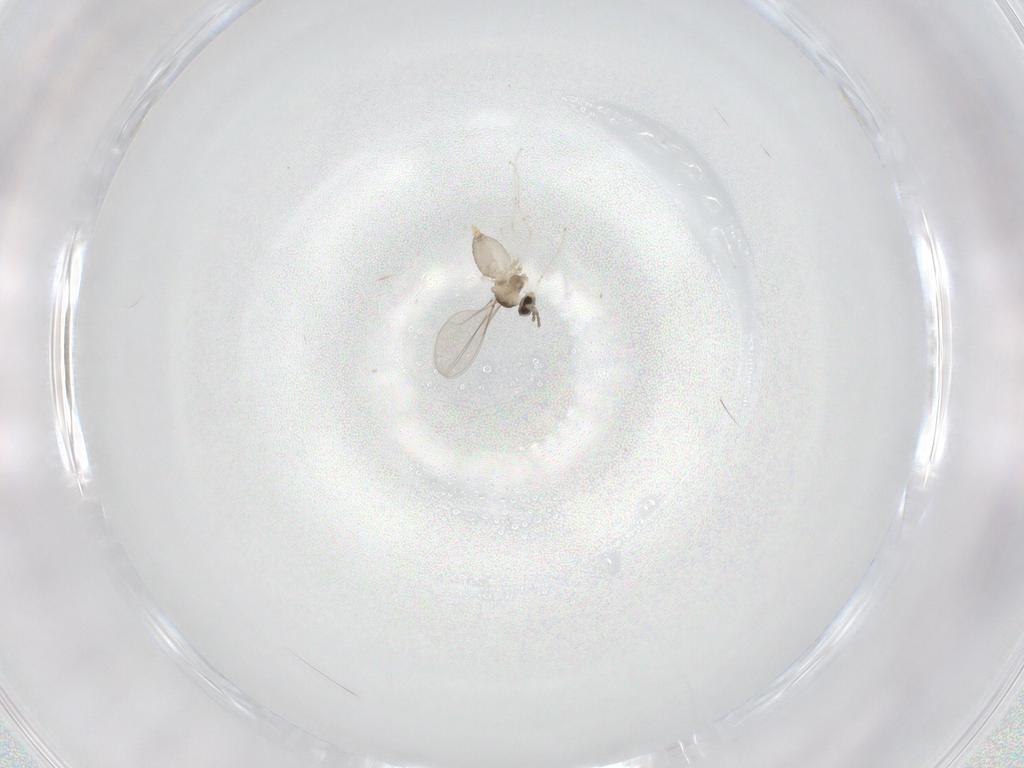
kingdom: Animalia
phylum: Arthropoda
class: Insecta
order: Diptera
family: Cecidomyiidae
